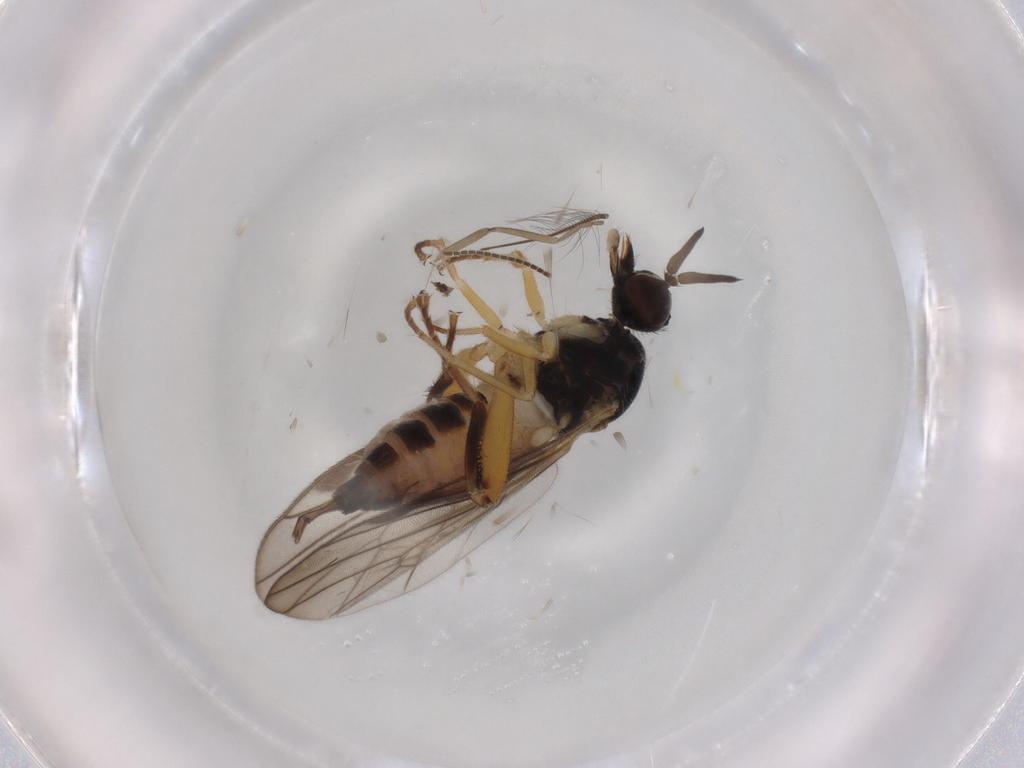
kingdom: Animalia
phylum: Arthropoda
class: Insecta
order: Diptera
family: Hybotidae
